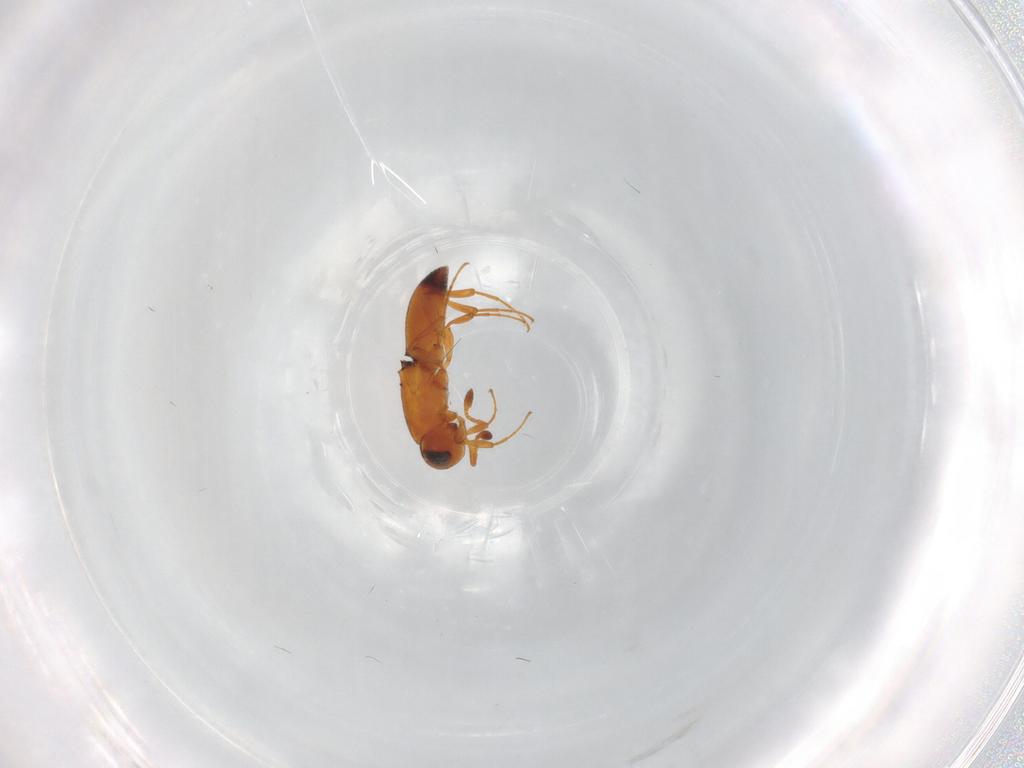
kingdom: Animalia
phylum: Arthropoda
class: Insecta
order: Hymenoptera
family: Platygastridae
